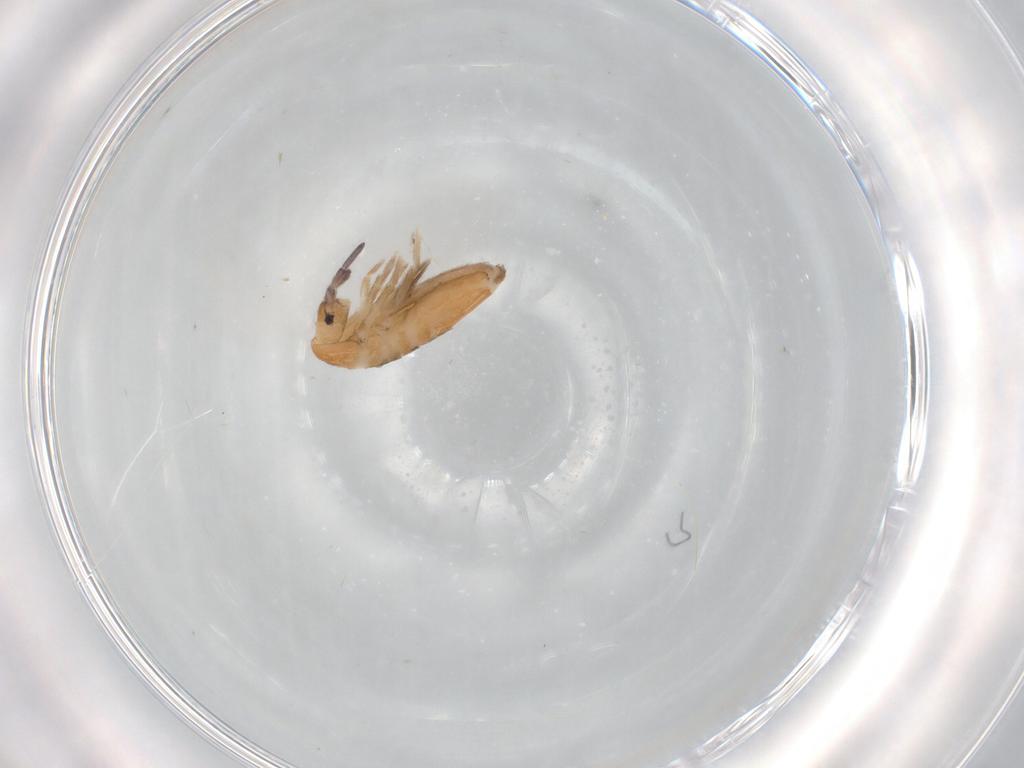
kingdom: Animalia
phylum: Arthropoda
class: Collembola
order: Entomobryomorpha
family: Entomobryidae
